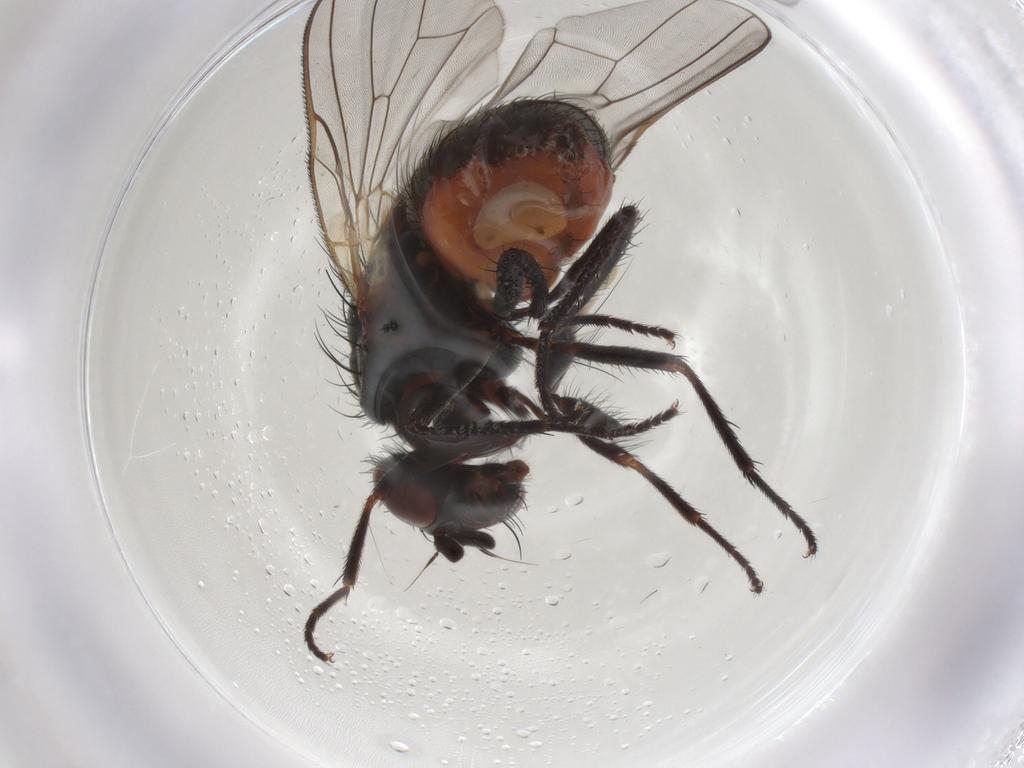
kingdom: Animalia
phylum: Arthropoda
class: Insecta
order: Diptera
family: Anthomyiidae
